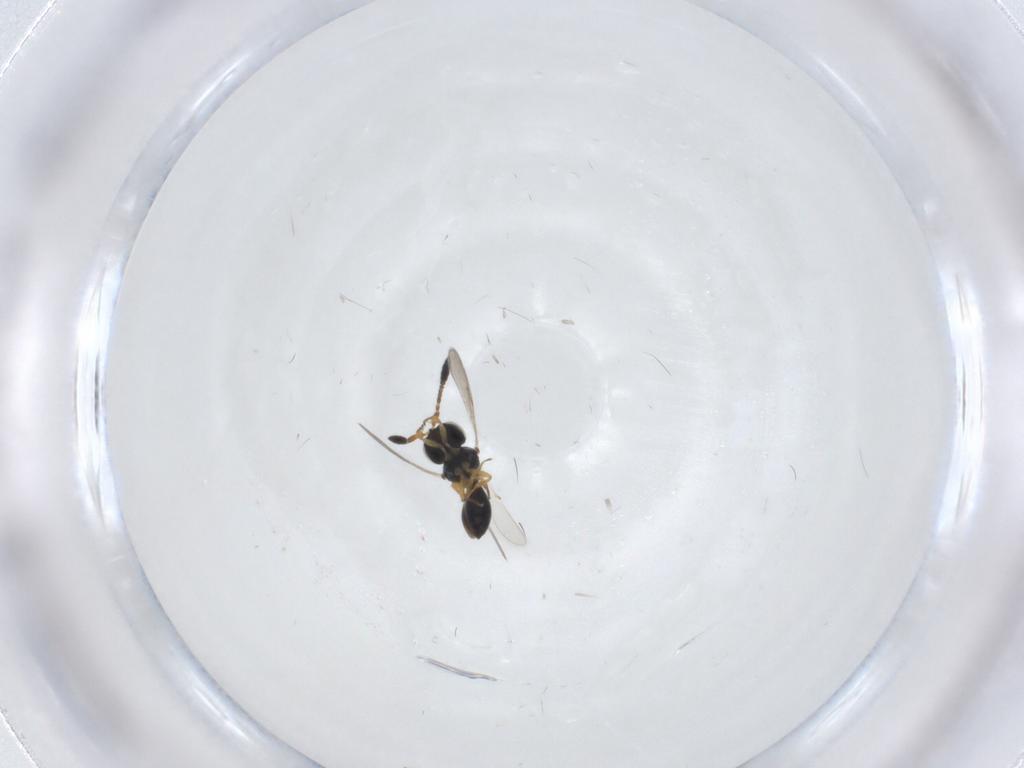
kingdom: Animalia
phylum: Arthropoda
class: Insecta
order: Hymenoptera
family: Scelionidae
